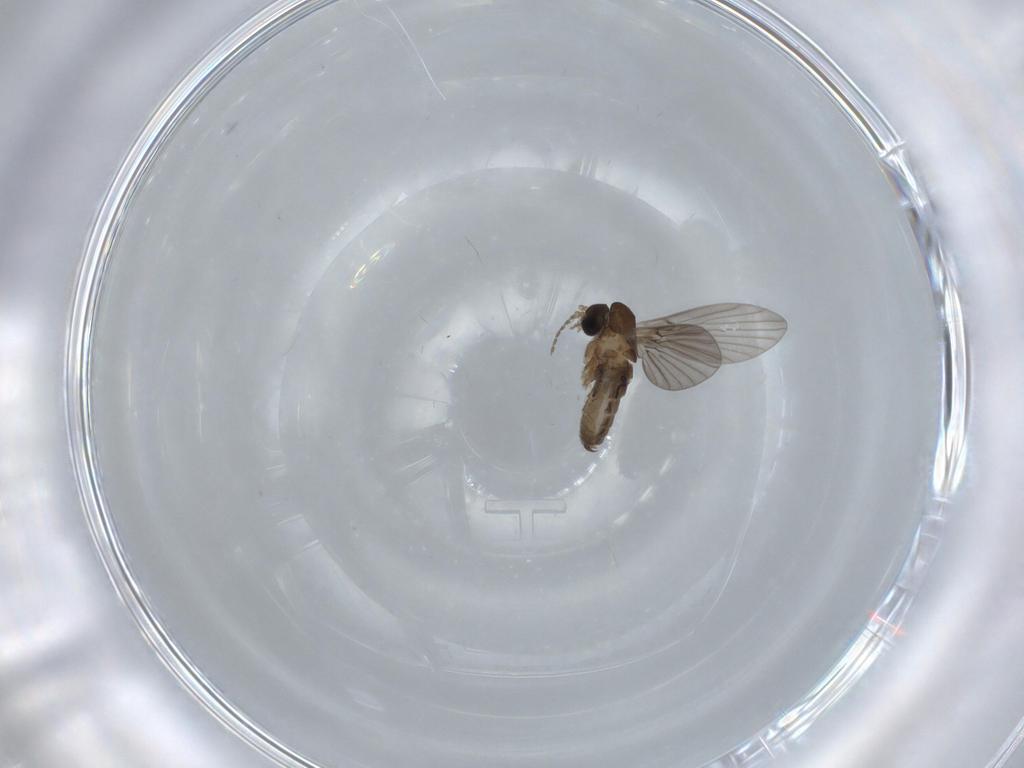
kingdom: Animalia
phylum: Arthropoda
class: Insecta
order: Diptera
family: Psychodidae
